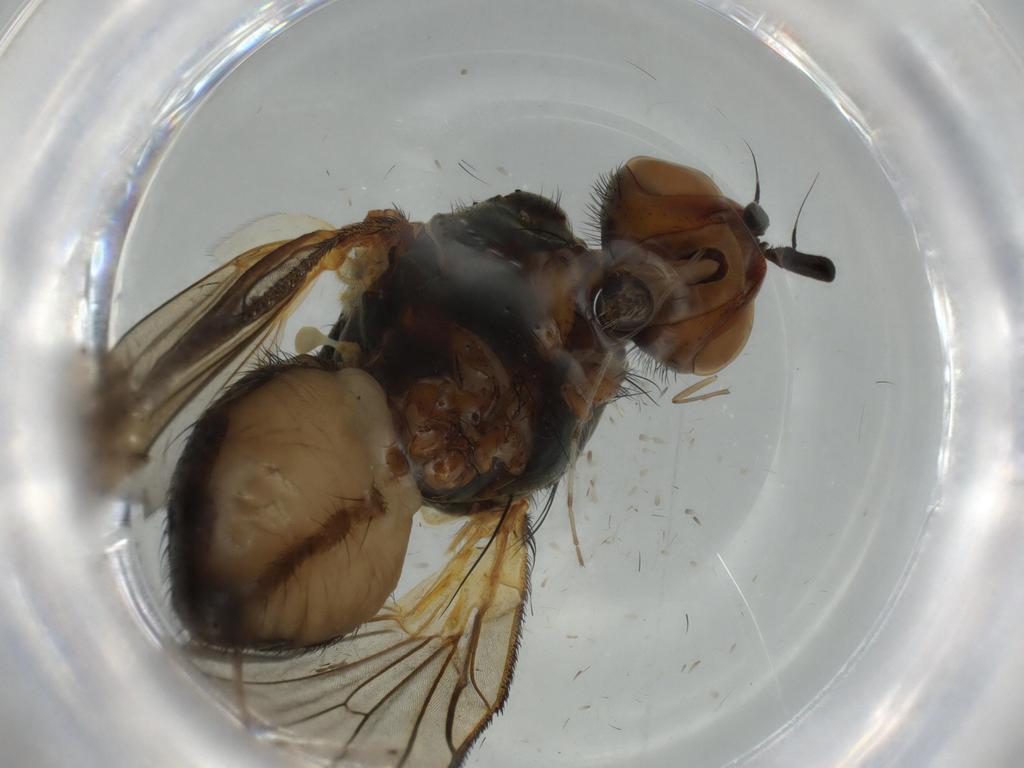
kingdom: Animalia
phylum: Arthropoda
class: Insecta
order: Diptera
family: Anthomyiidae
